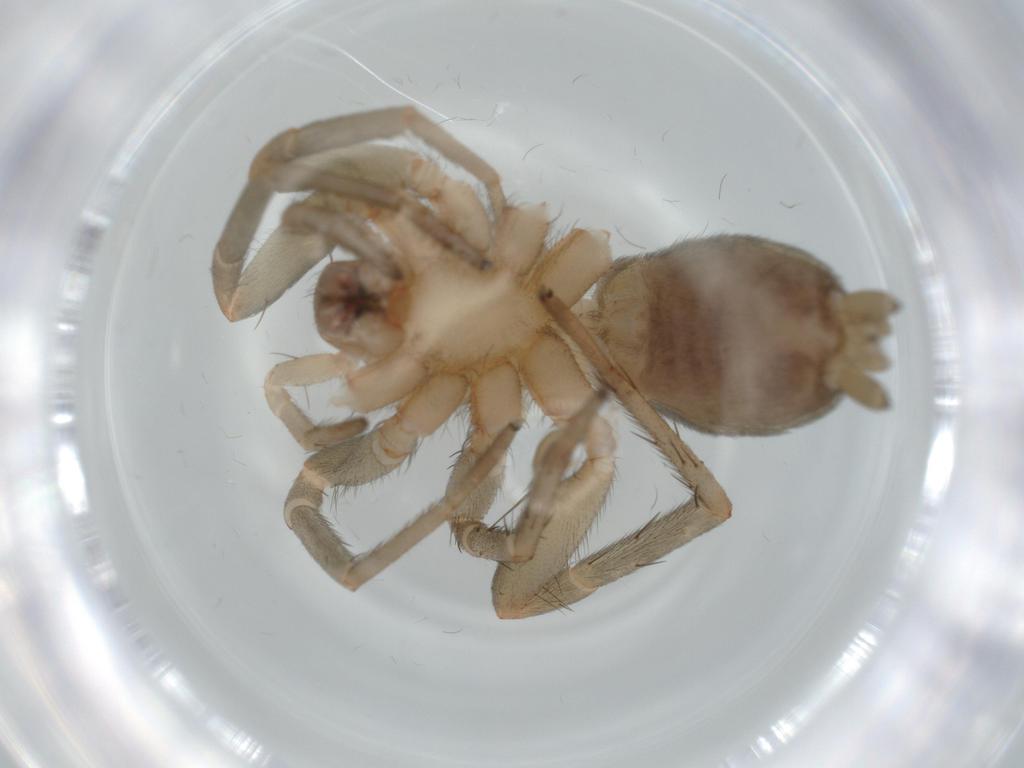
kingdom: Animalia
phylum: Arthropoda
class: Arachnida
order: Araneae
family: Gnaphosidae
